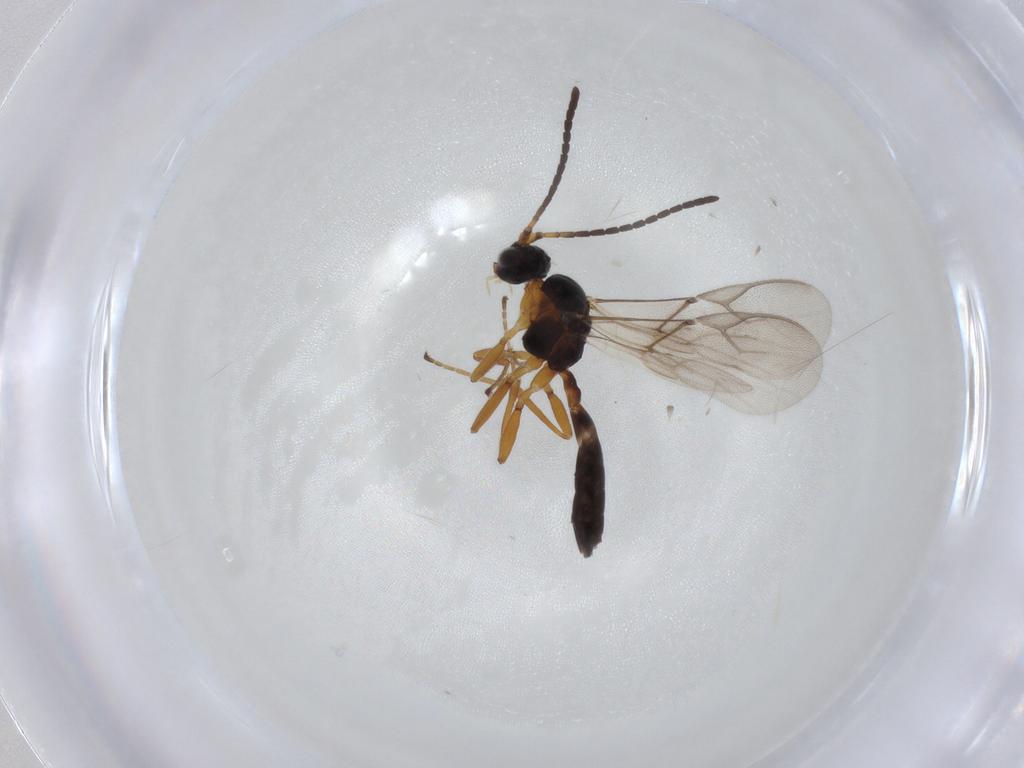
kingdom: Animalia
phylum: Arthropoda
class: Insecta
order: Hymenoptera
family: Braconidae
